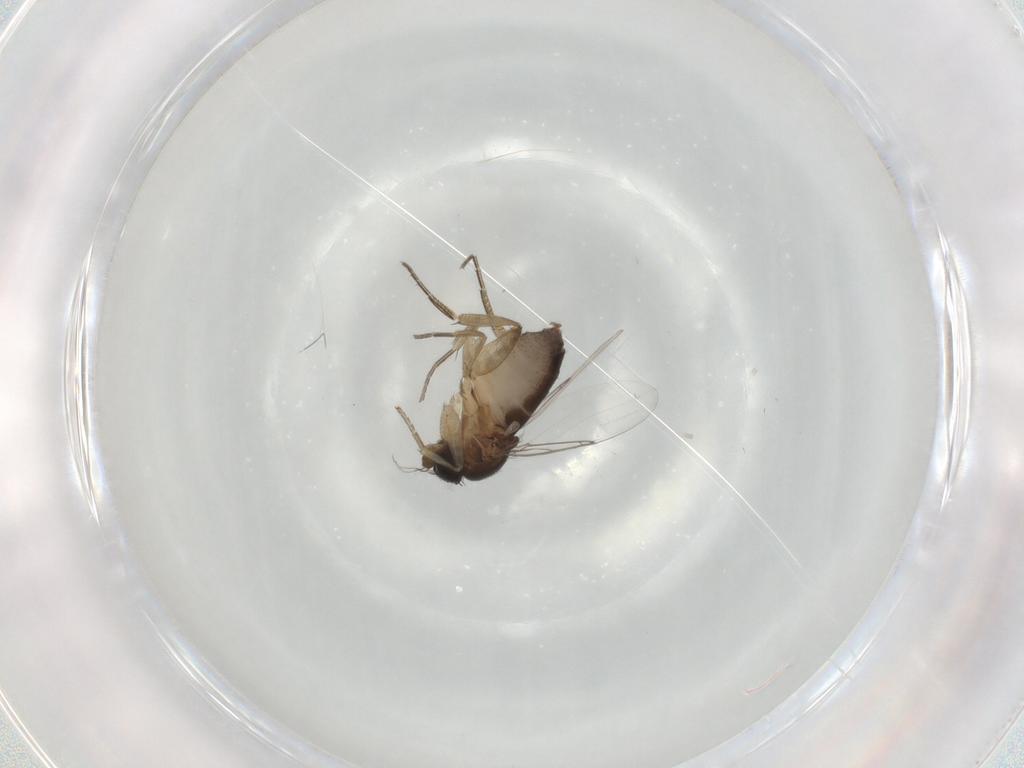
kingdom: Animalia
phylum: Arthropoda
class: Insecta
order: Diptera
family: Phoridae
